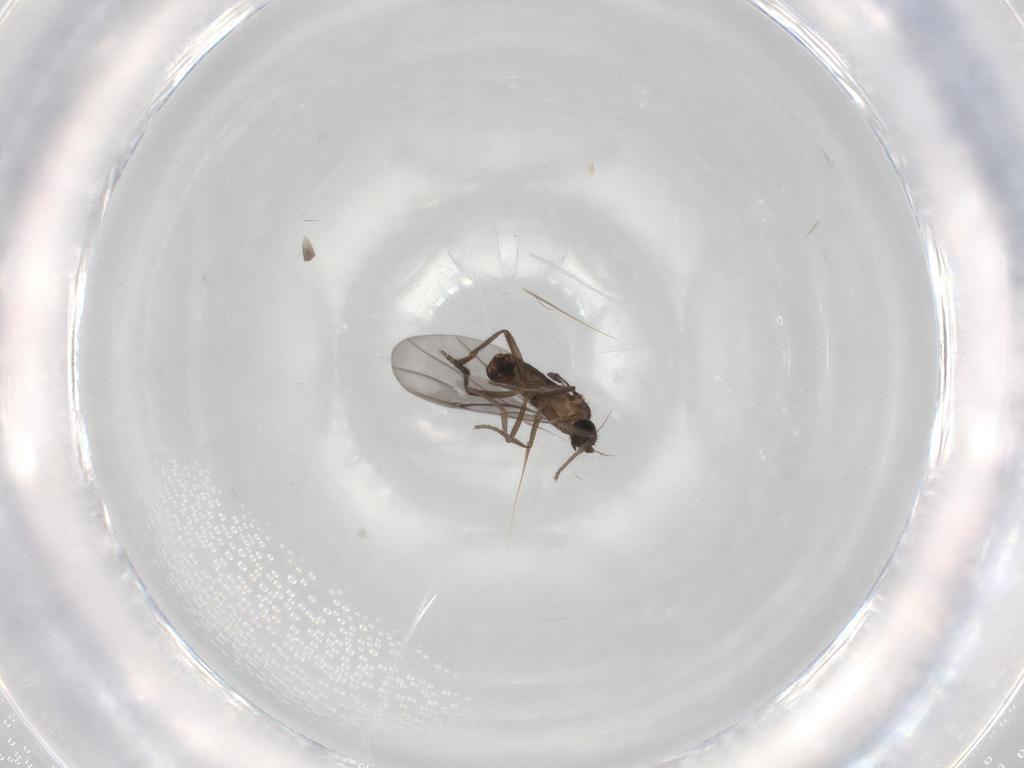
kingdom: Animalia
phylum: Arthropoda
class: Insecta
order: Diptera
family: Phoridae
